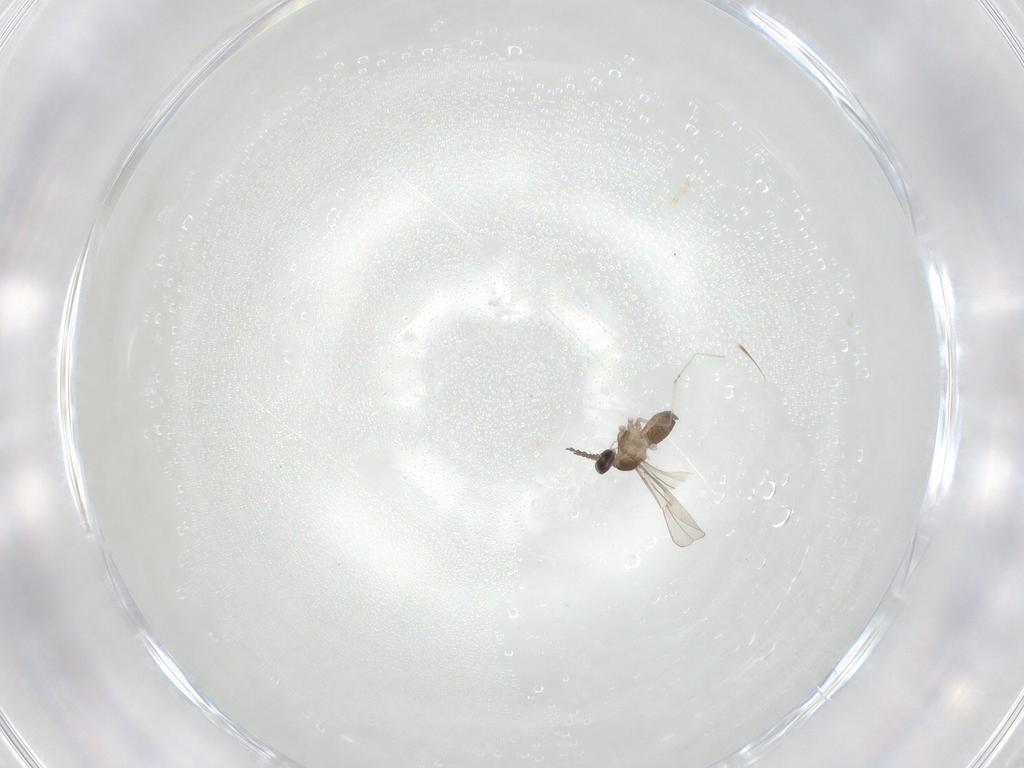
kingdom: Animalia
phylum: Arthropoda
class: Insecta
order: Diptera
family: Cecidomyiidae
